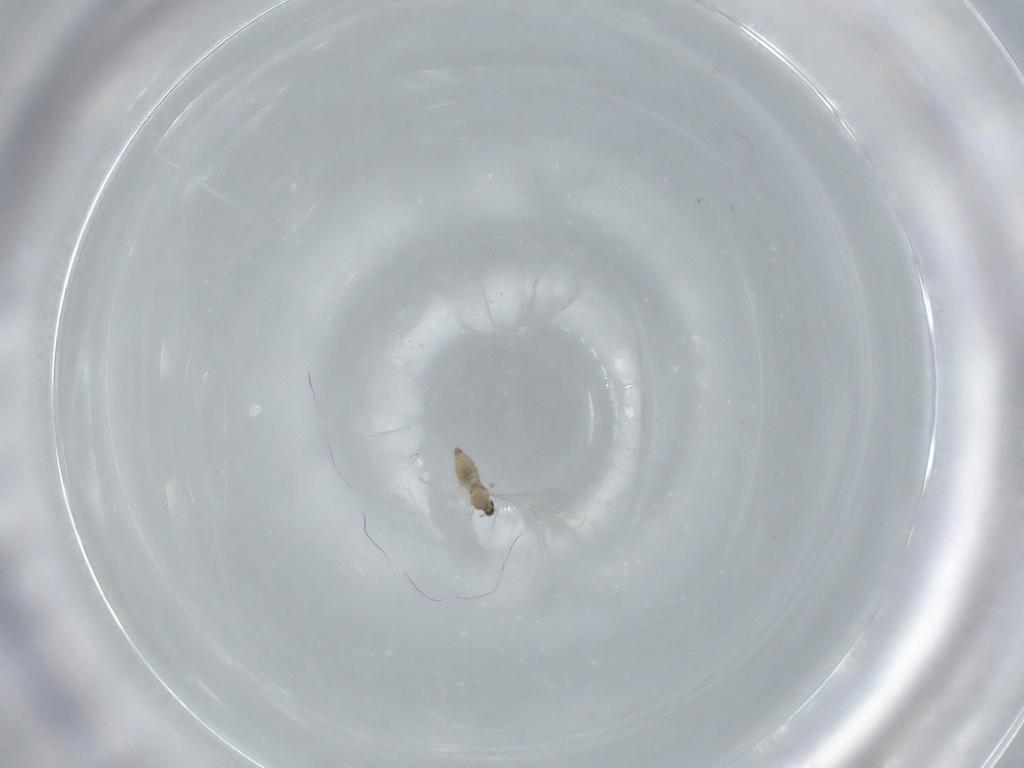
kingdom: Animalia
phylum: Arthropoda
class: Insecta
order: Diptera
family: Cecidomyiidae
